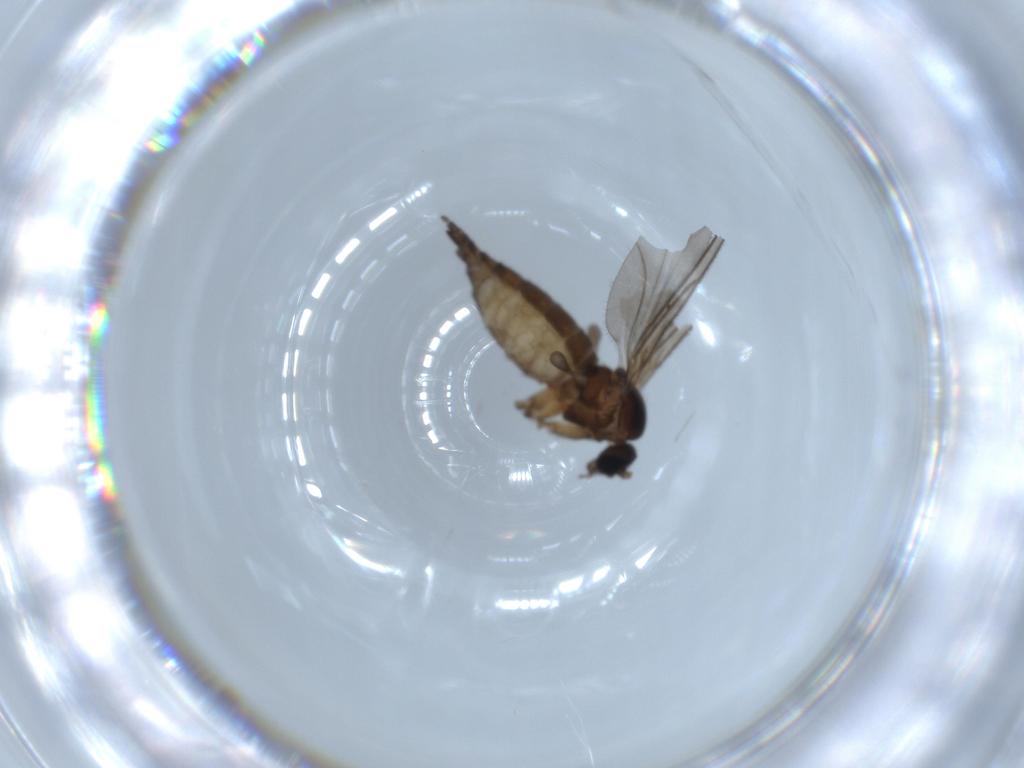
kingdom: Animalia
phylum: Arthropoda
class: Insecta
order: Diptera
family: Sciaridae
